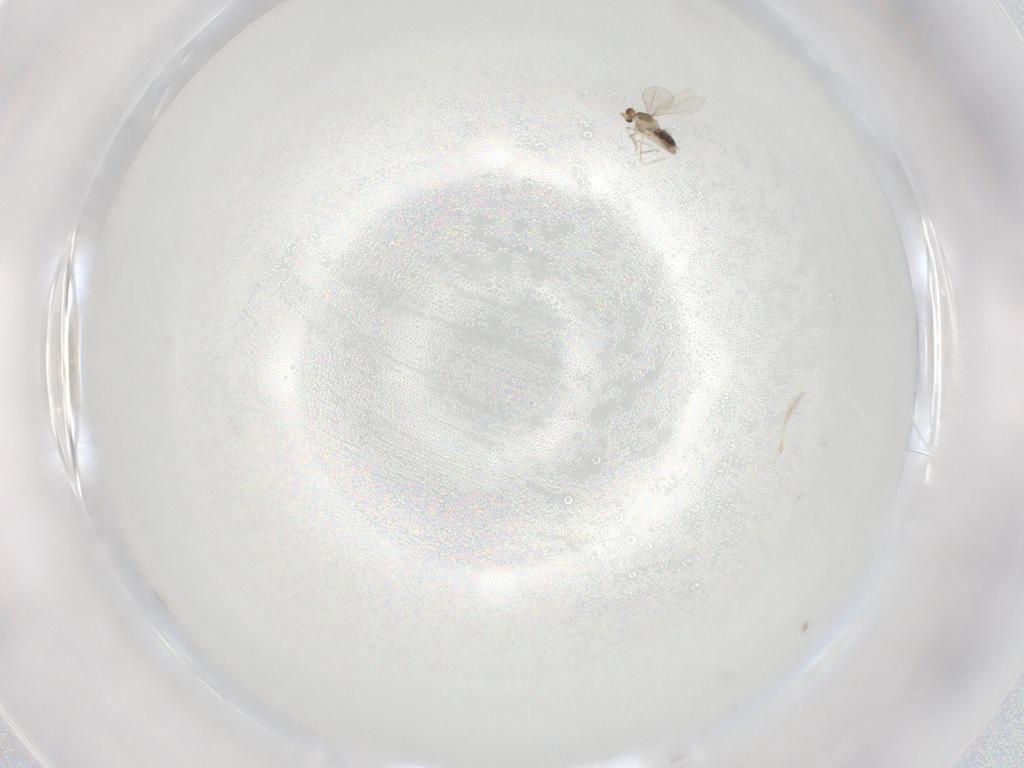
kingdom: Animalia
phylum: Arthropoda
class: Insecta
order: Diptera
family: Cecidomyiidae
